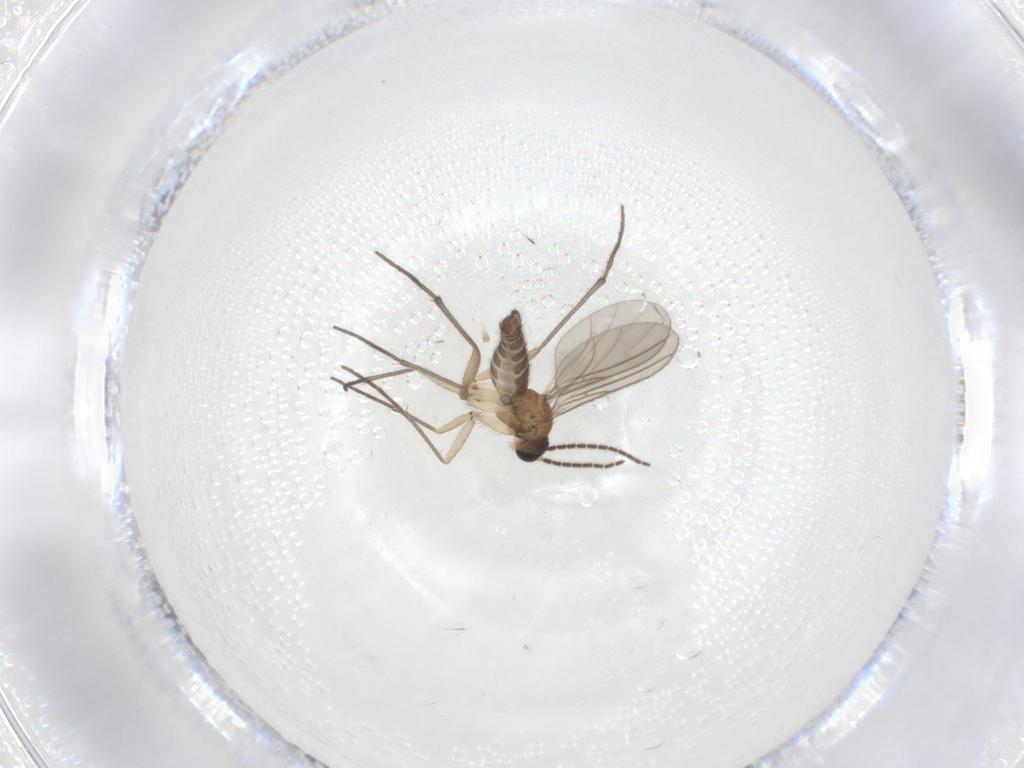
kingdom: Animalia
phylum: Arthropoda
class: Insecta
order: Diptera
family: Sciaridae
